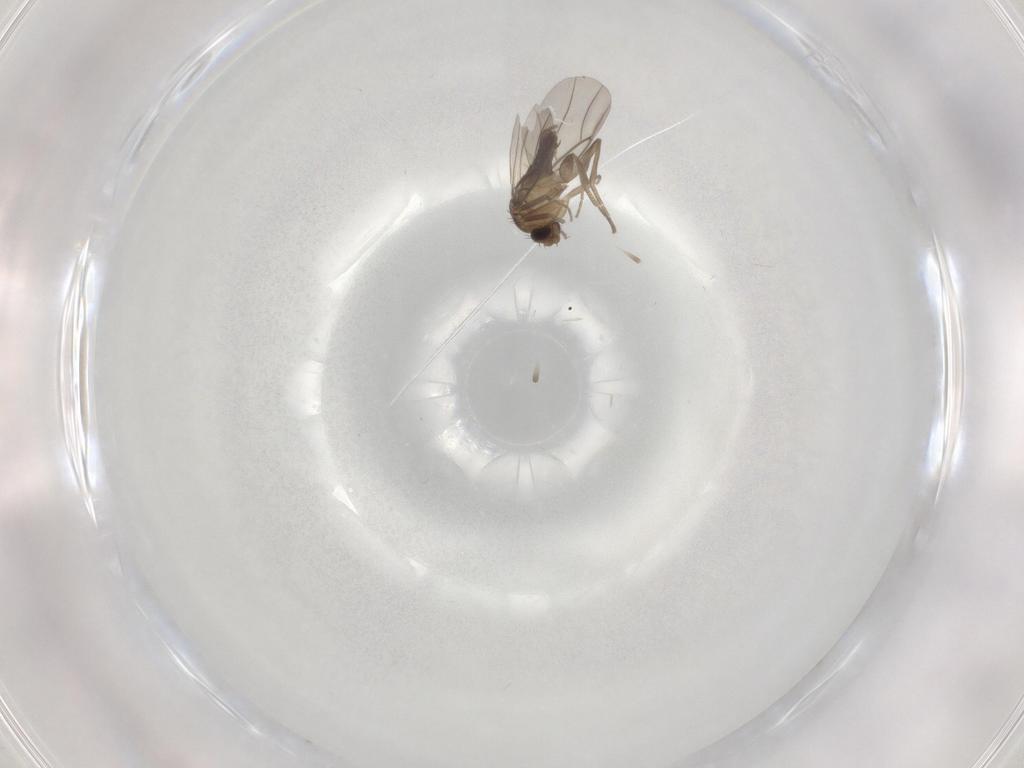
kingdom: Animalia
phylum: Arthropoda
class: Insecta
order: Diptera
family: Phoridae
